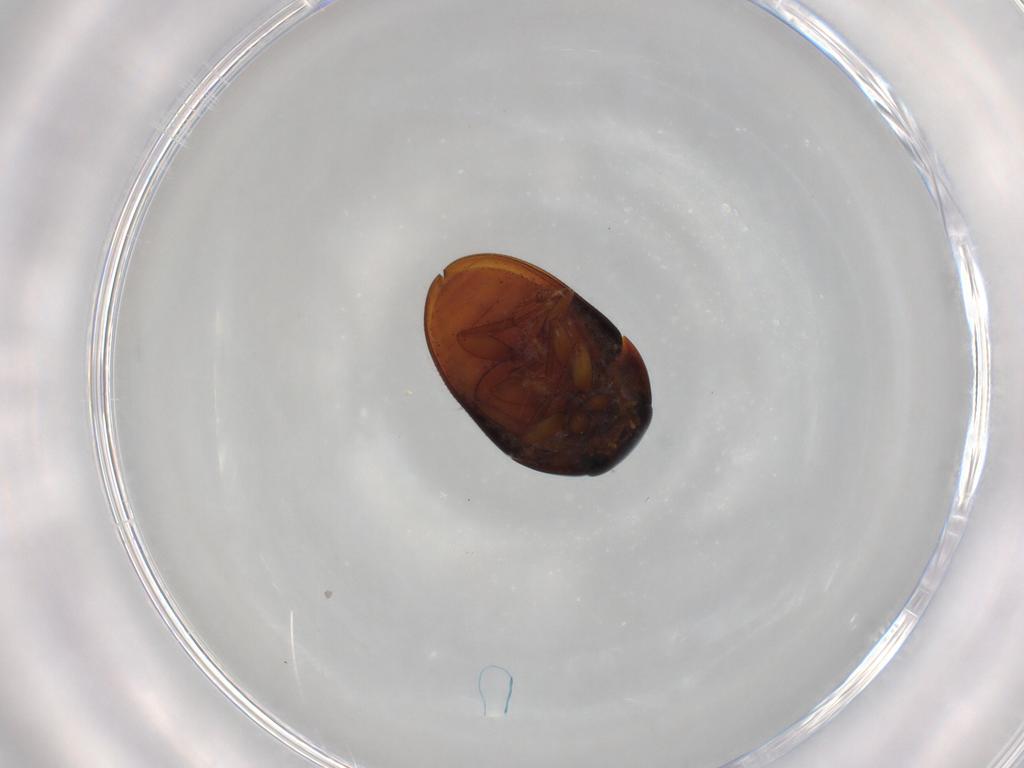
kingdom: Animalia
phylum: Arthropoda
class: Insecta
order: Coleoptera
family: Phalacridae
